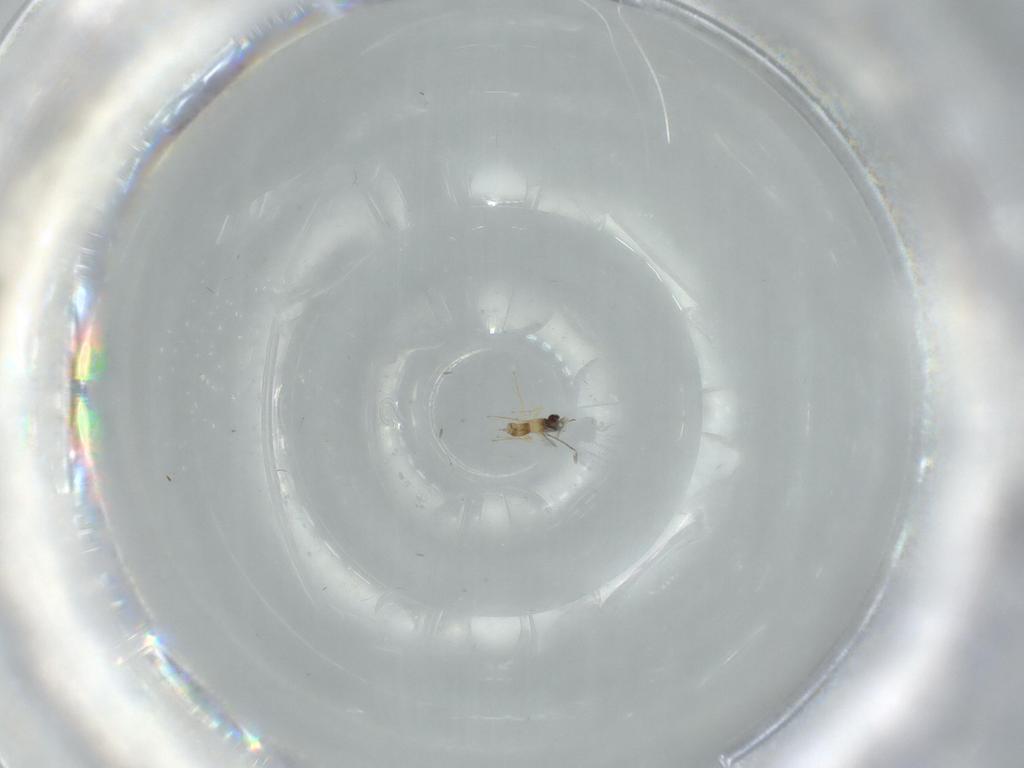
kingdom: Animalia
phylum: Arthropoda
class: Insecta
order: Hymenoptera
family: Mymaridae
